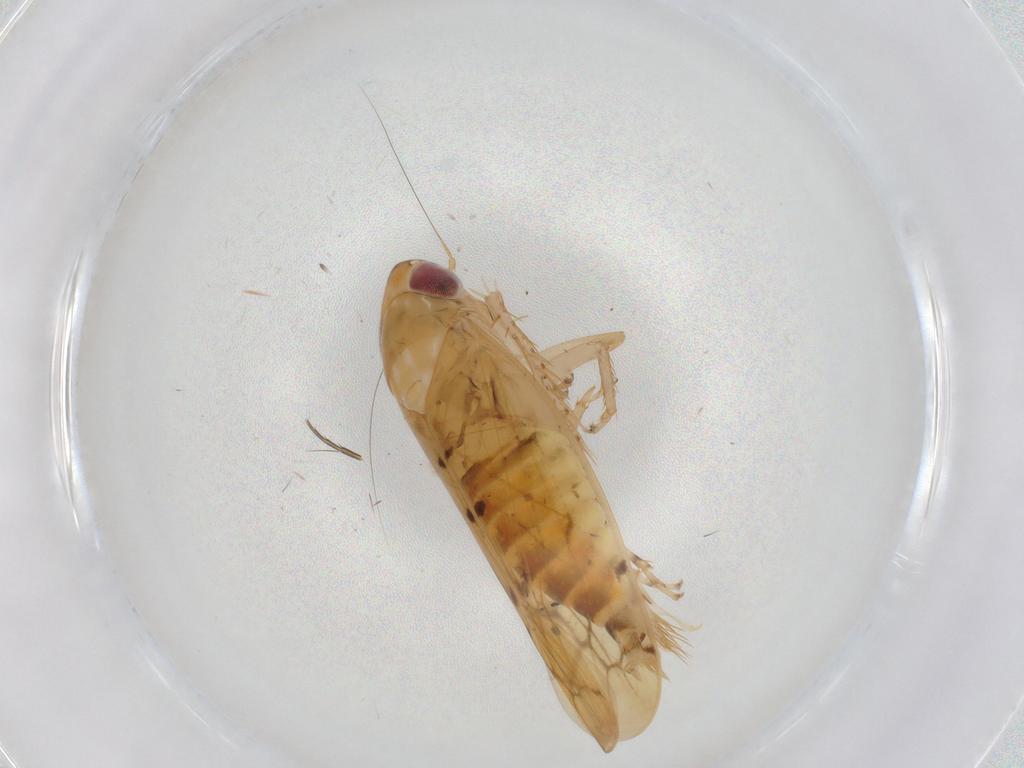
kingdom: Animalia
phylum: Arthropoda
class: Insecta
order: Hemiptera
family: Cicadellidae
